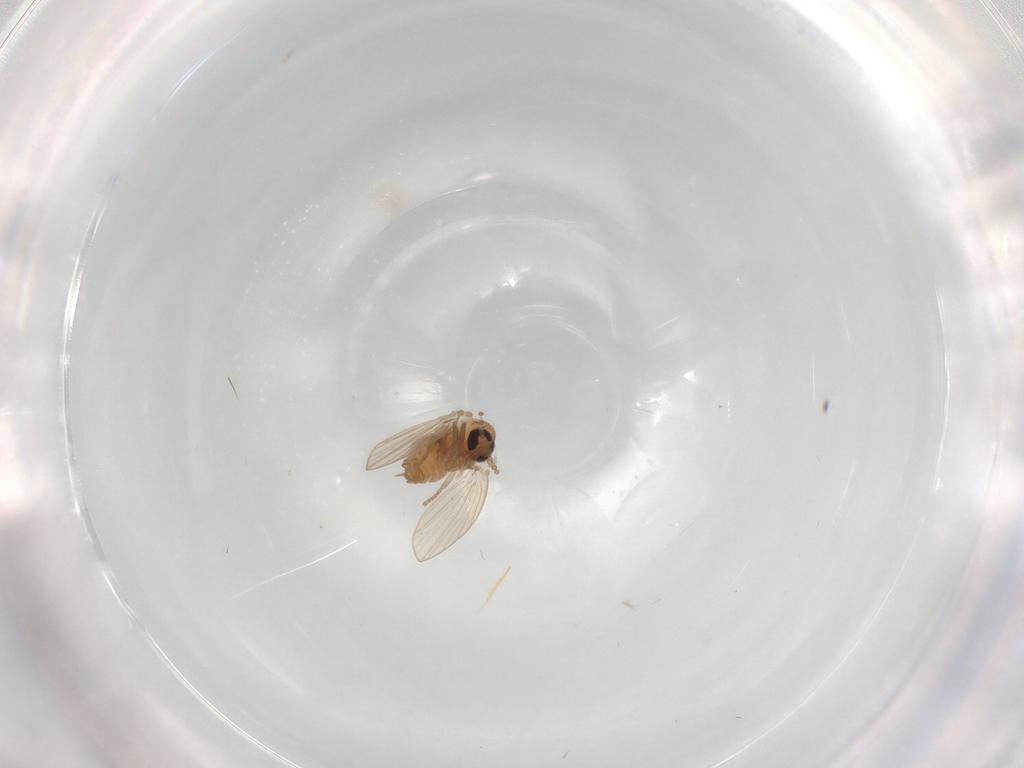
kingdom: Animalia
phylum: Arthropoda
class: Insecta
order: Diptera
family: Psychodidae
